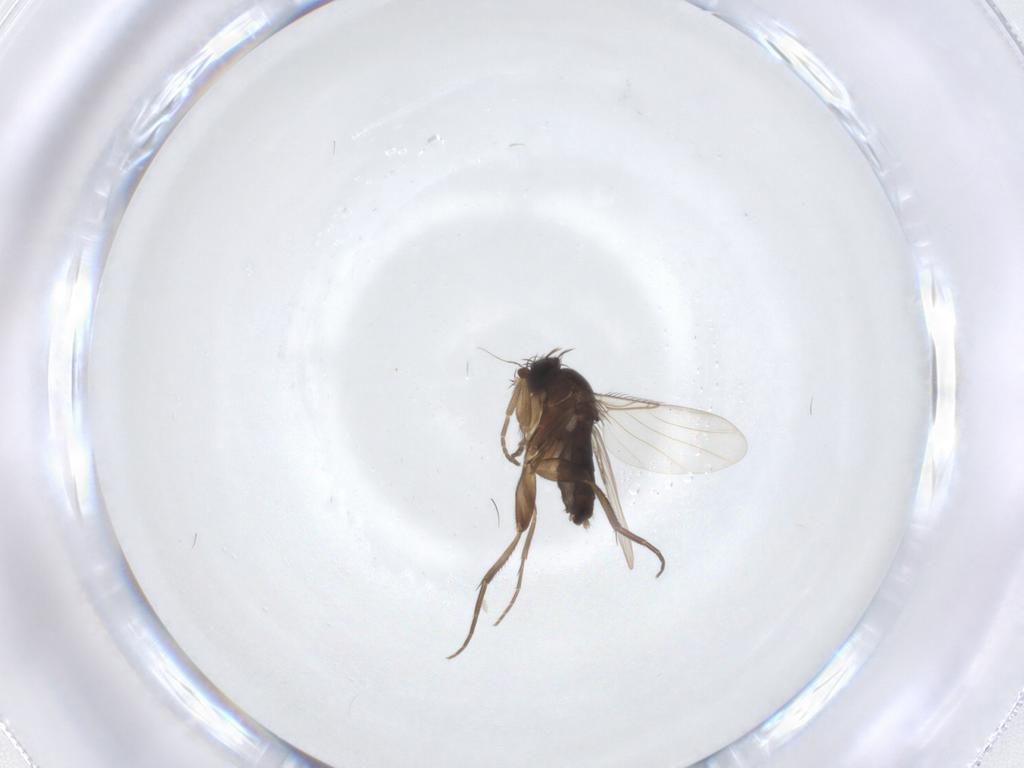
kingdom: Animalia
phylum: Arthropoda
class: Insecta
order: Diptera
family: Phoridae
